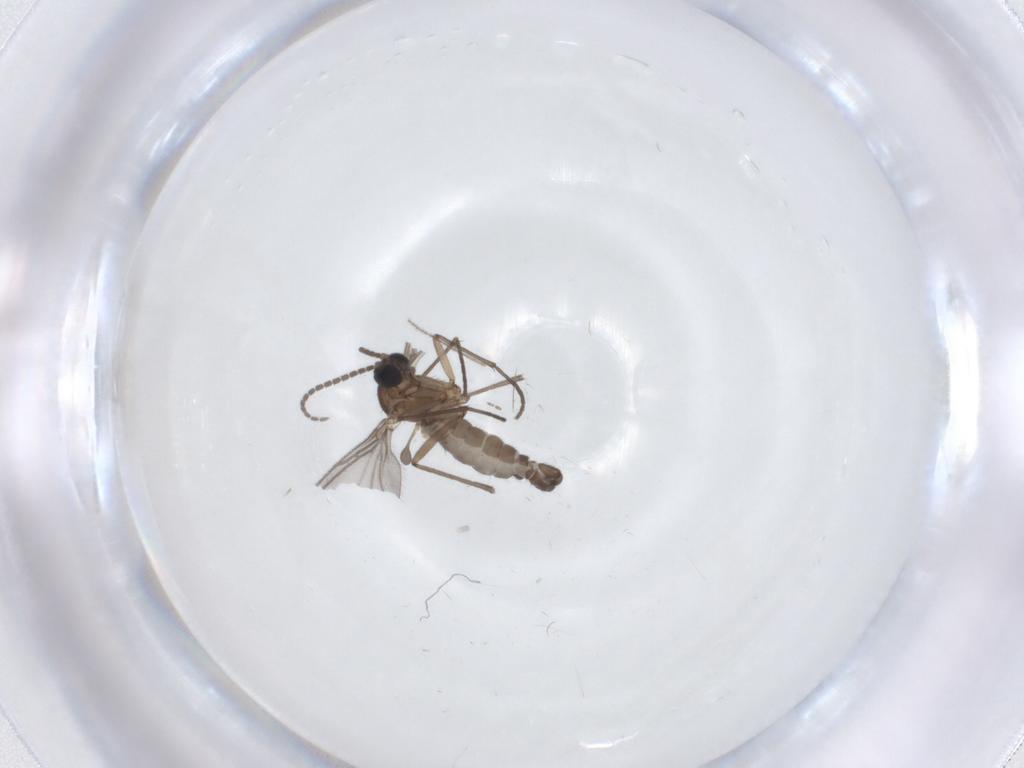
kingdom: Animalia
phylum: Arthropoda
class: Insecta
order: Diptera
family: Sciaridae
